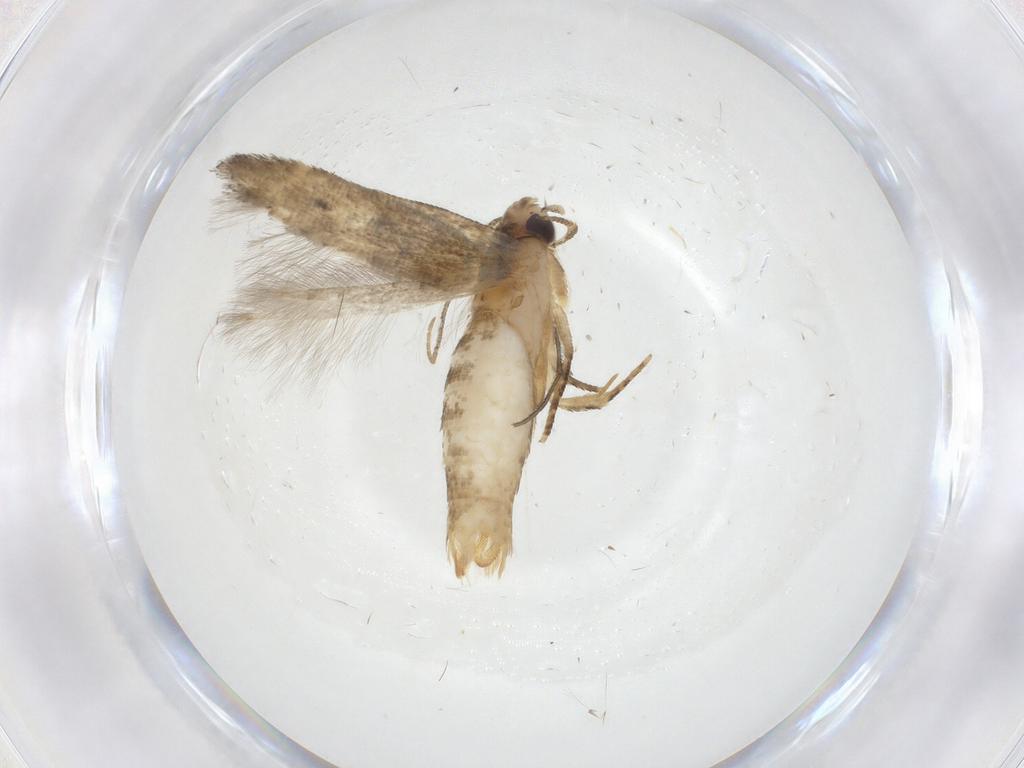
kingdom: Animalia
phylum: Arthropoda
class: Insecta
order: Lepidoptera
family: Gelechiidae
